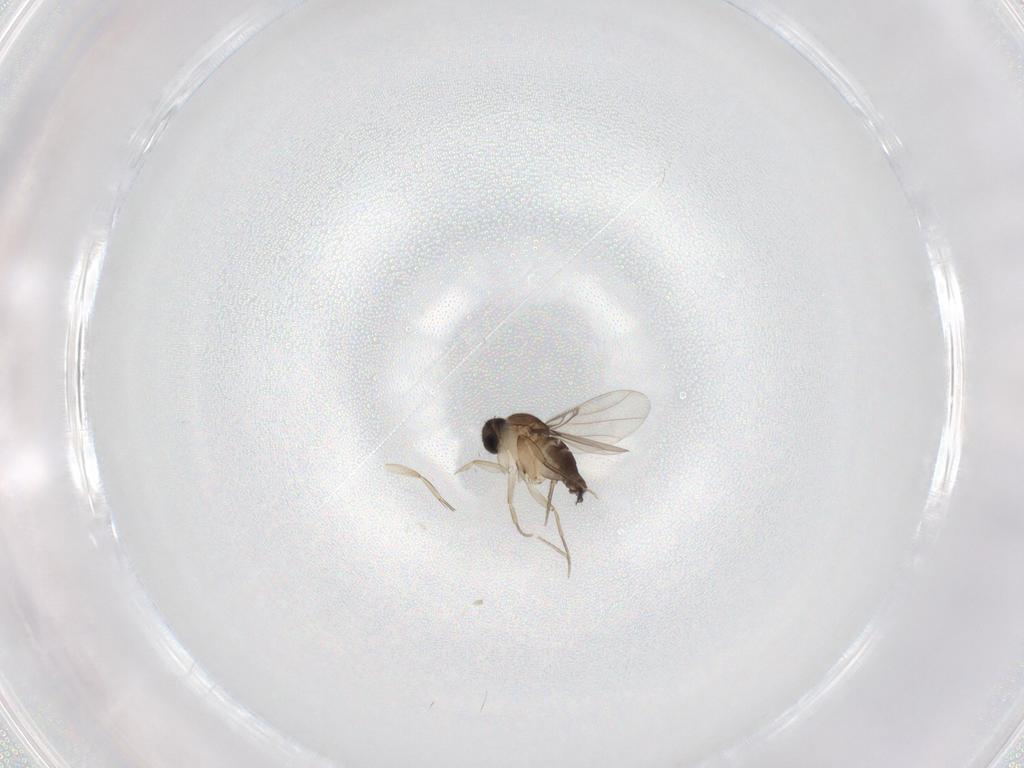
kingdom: Animalia
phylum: Arthropoda
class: Insecta
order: Diptera
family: Phoridae
